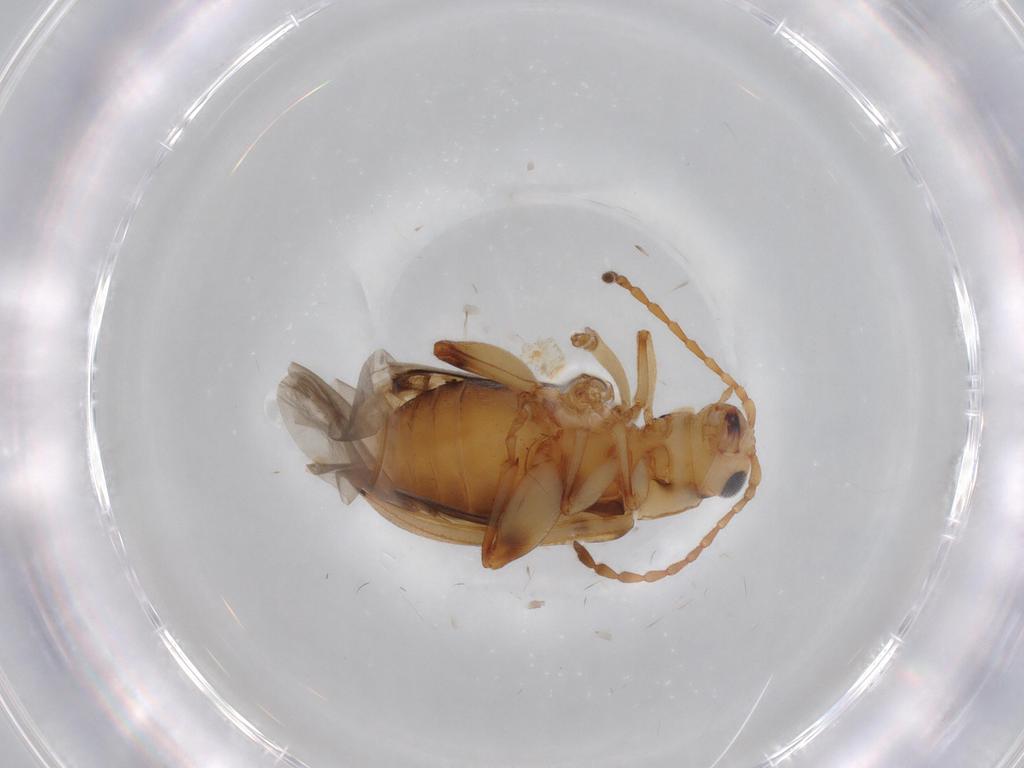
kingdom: Animalia
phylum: Arthropoda
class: Insecta
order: Coleoptera
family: Chrysomelidae
